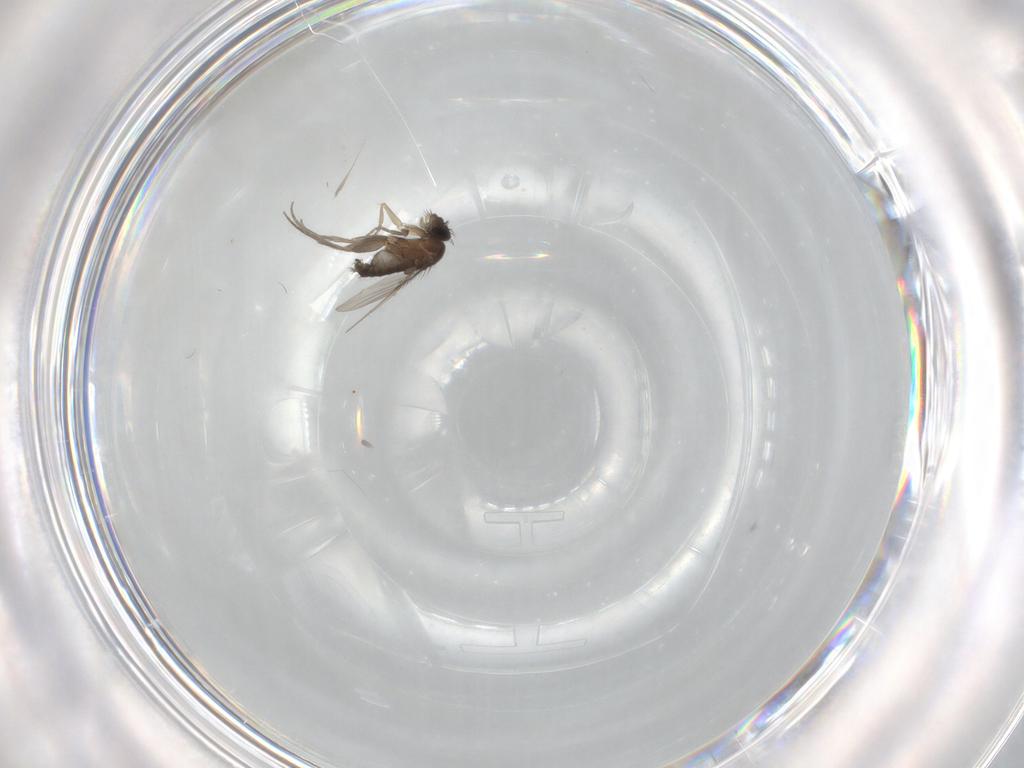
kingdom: Animalia
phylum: Arthropoda
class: Insecta
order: Diptera
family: Phoridae
